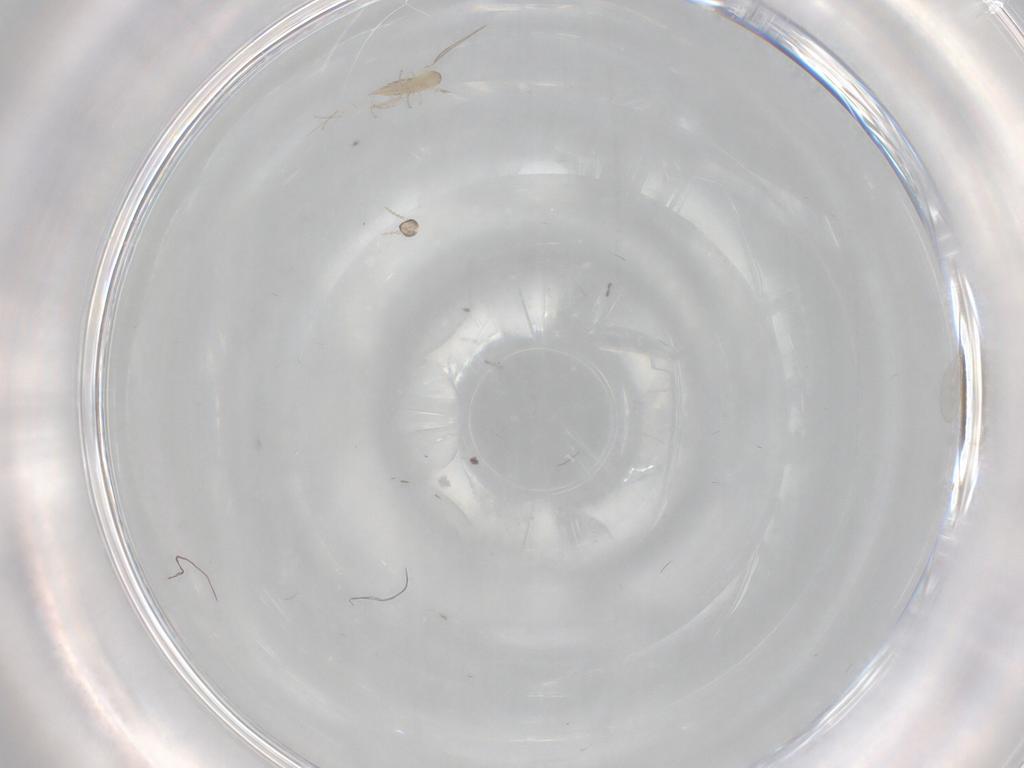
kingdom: Animalia
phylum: Arthropoda
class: Insecta
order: Diptera
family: Cecidomyiidae
